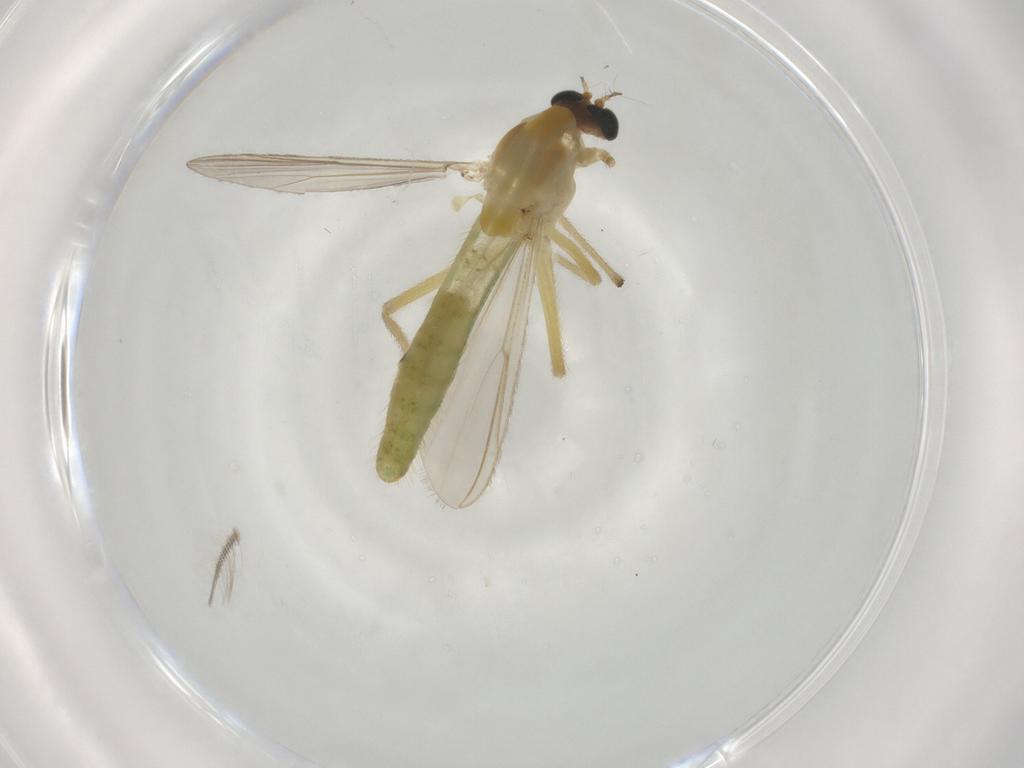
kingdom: Animalia
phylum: Arthropoda
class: Insecta
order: Diptera
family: Chironomidae
